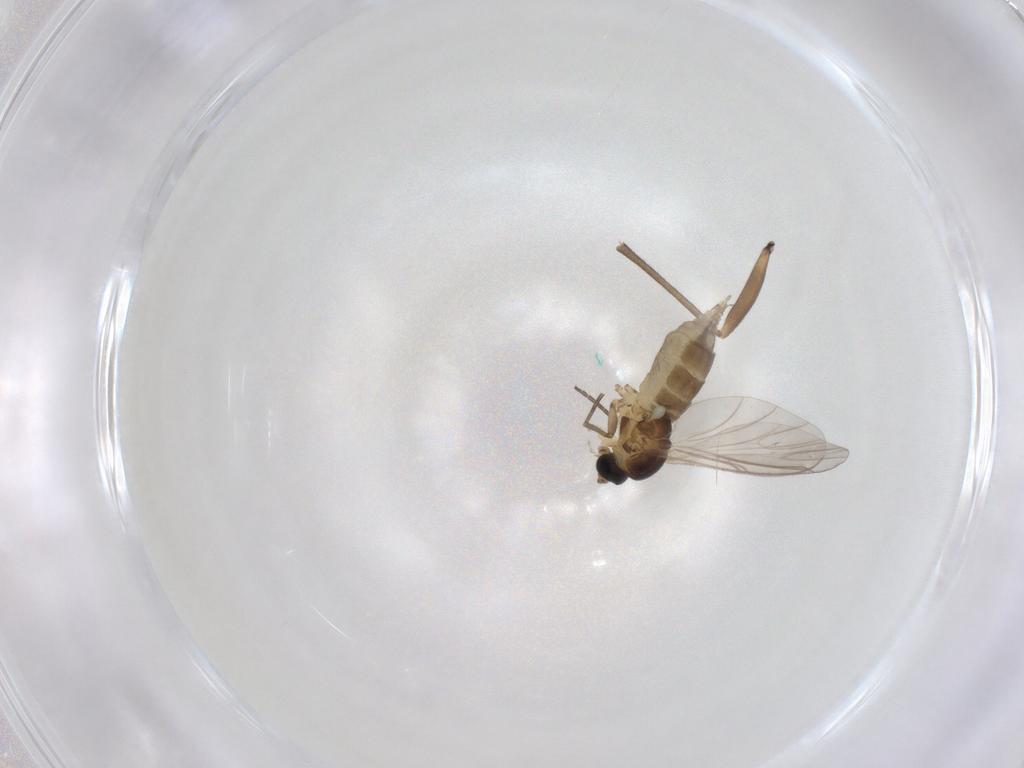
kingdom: Animalia
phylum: Arthropoda
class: Insecta
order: Diptera
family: Sciaridae
